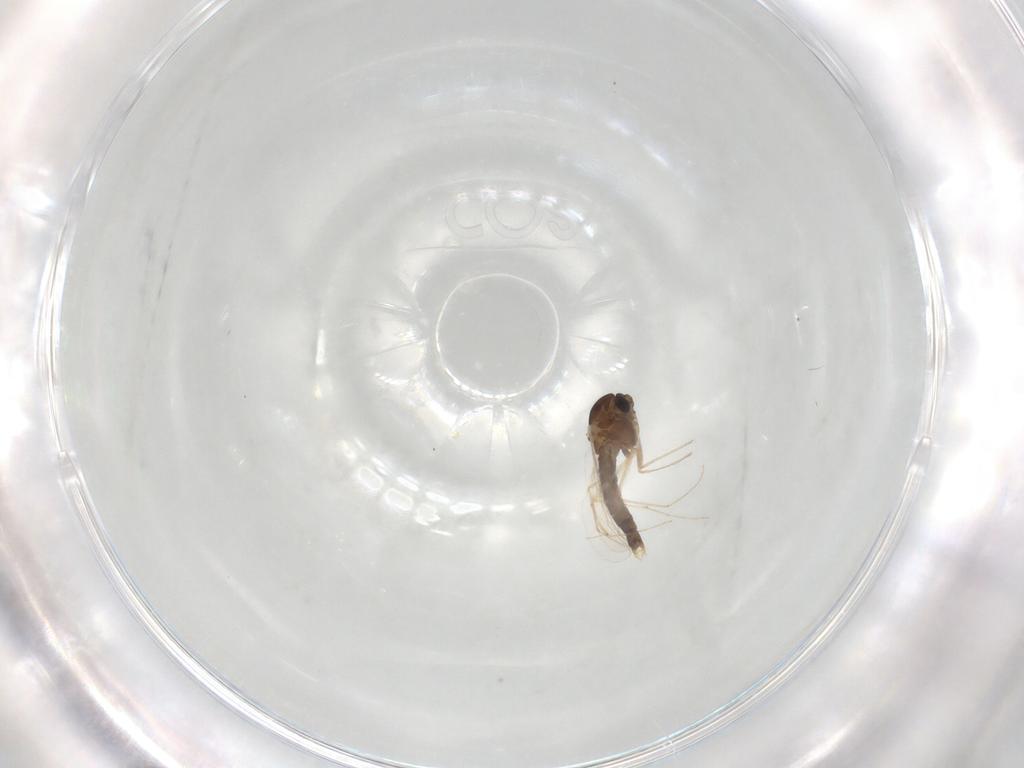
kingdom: Animalia
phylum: Arthropoda
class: Insecta
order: Diptera
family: Chironomidae
